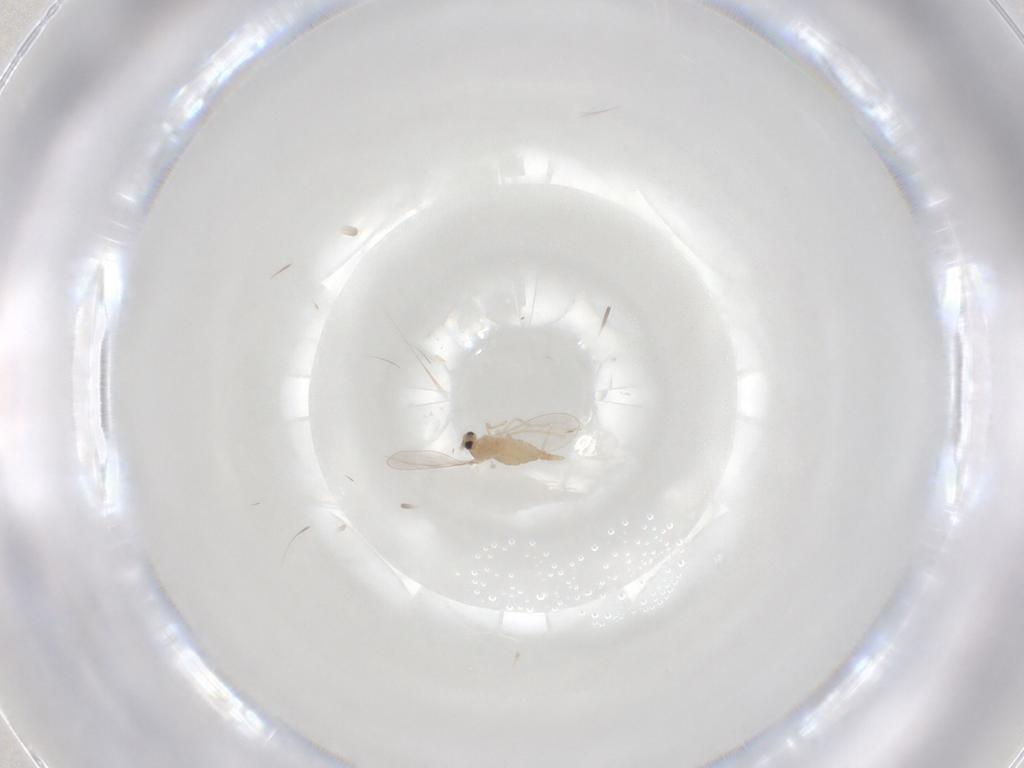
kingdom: Animalia
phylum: Arthropoda
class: Insecta
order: Diptera
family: Cecidomyiidae
